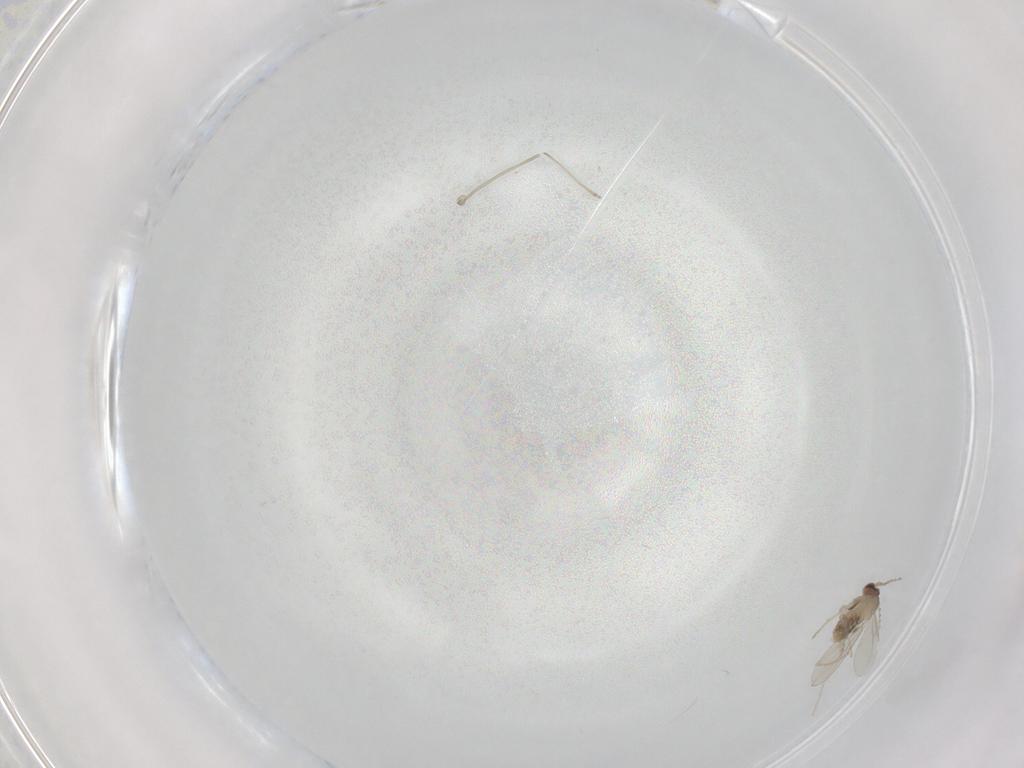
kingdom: Animalia
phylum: Arthropoda
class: Insecta
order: Diptera
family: Cecidomyiidae
